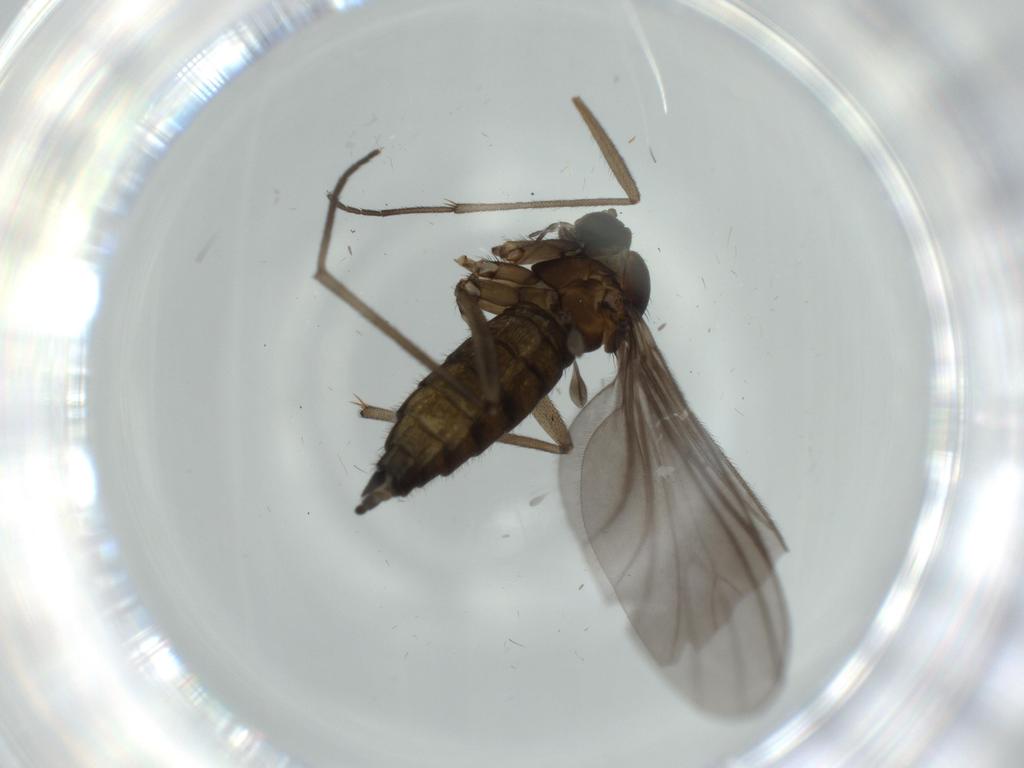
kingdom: Animalia
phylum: Arthropoda
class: Insecta
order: Diptera
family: Sciaridae
